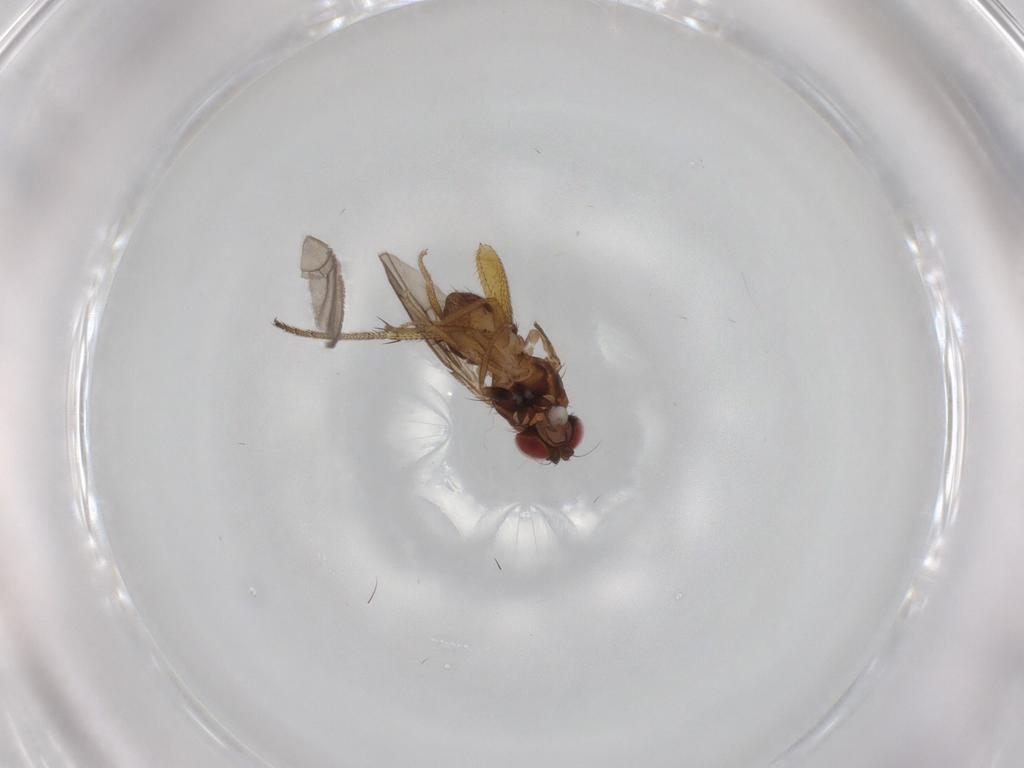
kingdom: Animalia
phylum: Arthropoda
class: Insecta
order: Diptera
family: Drosophilidae
